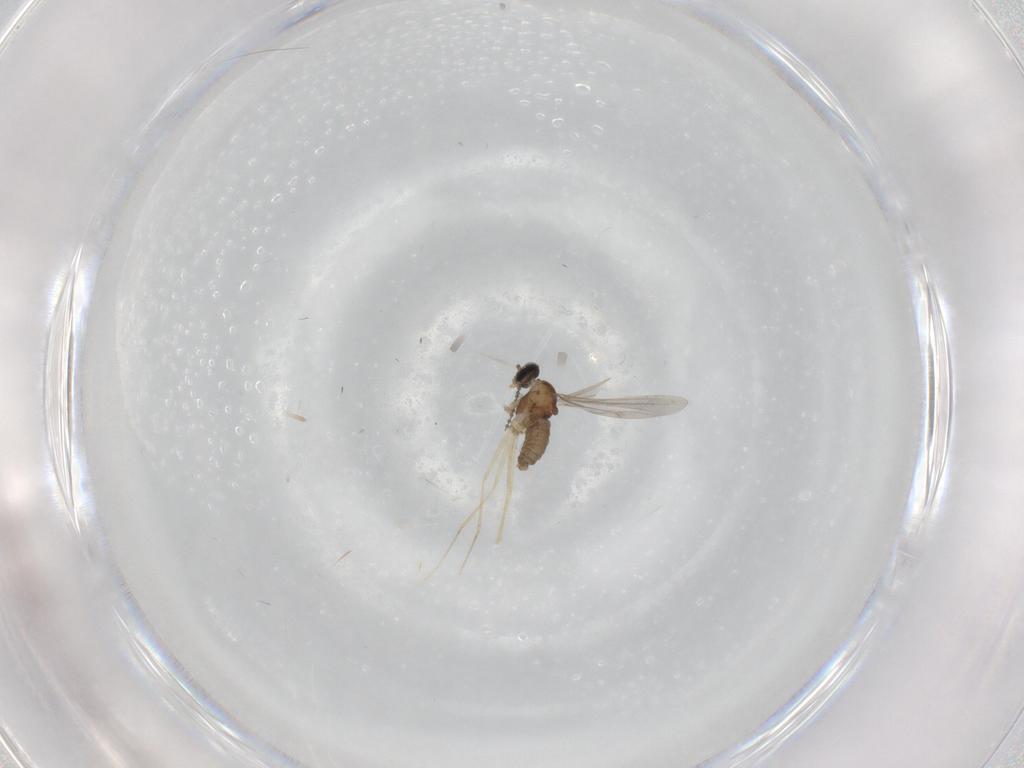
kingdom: Animalia
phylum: Arthropoda
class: Insecta
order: Diptera
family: Cecidomyiidae
